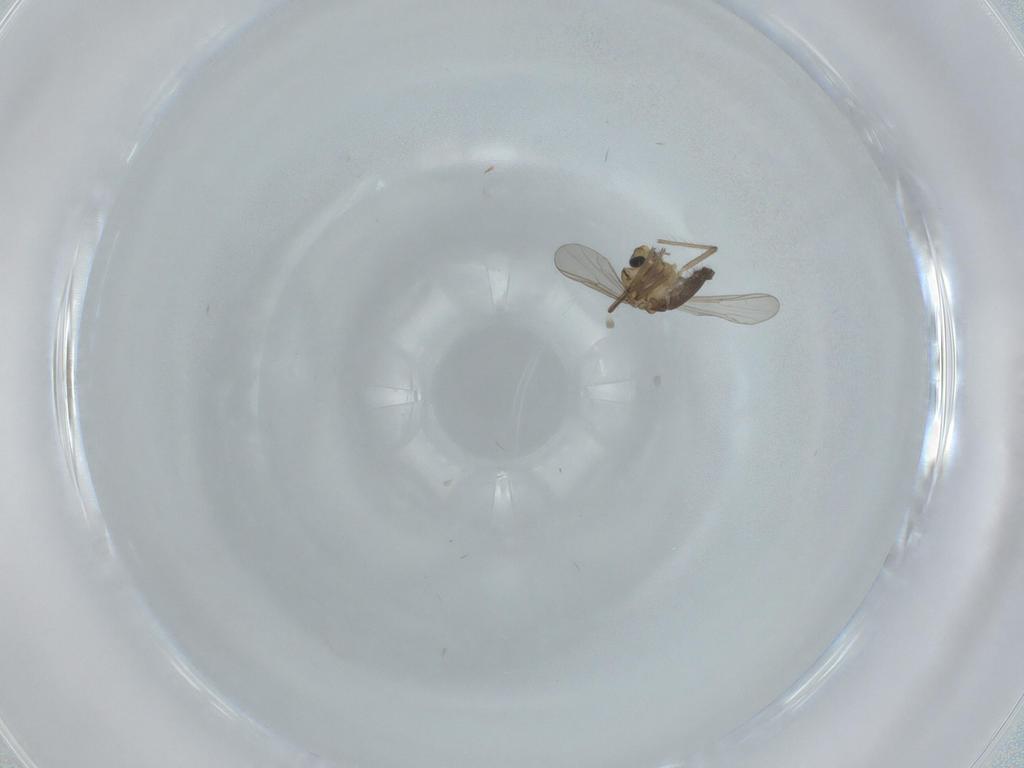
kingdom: Animalia
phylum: Arthropoda
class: Insecta
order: Diptera
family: Chironomidae
